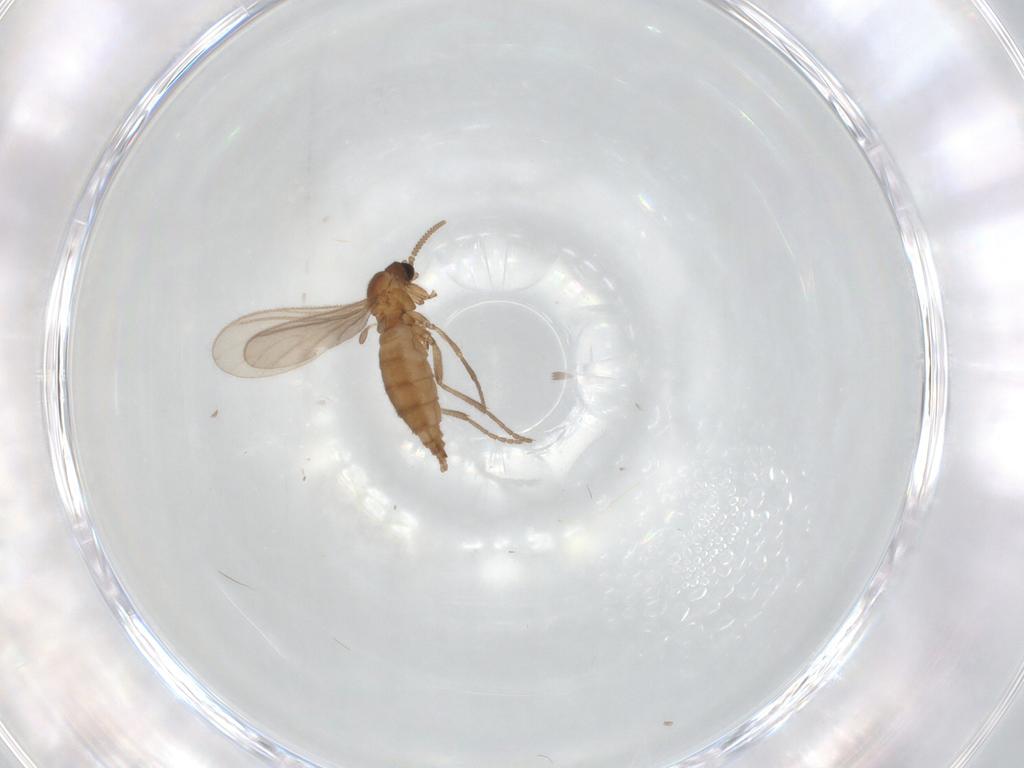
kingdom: Animalia
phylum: Arthropoda
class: Insecta
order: Diptera
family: Sciaridae
